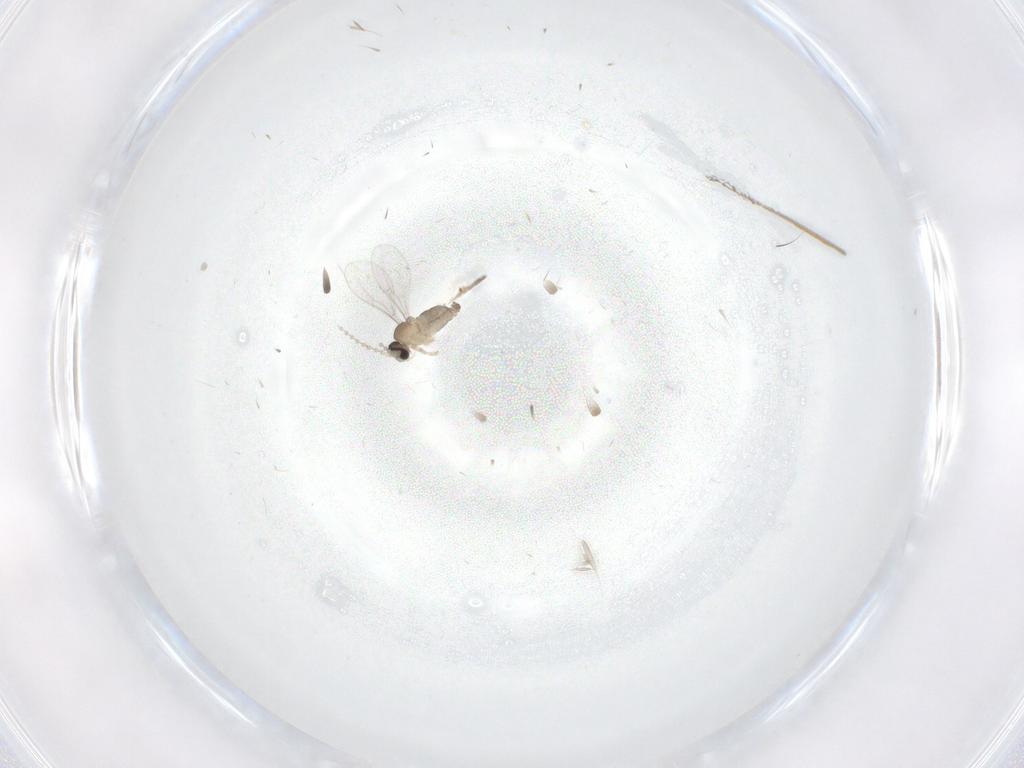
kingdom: Animalia
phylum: Arthropoda
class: Insecta
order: Diptera
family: Cecidomyiidae
